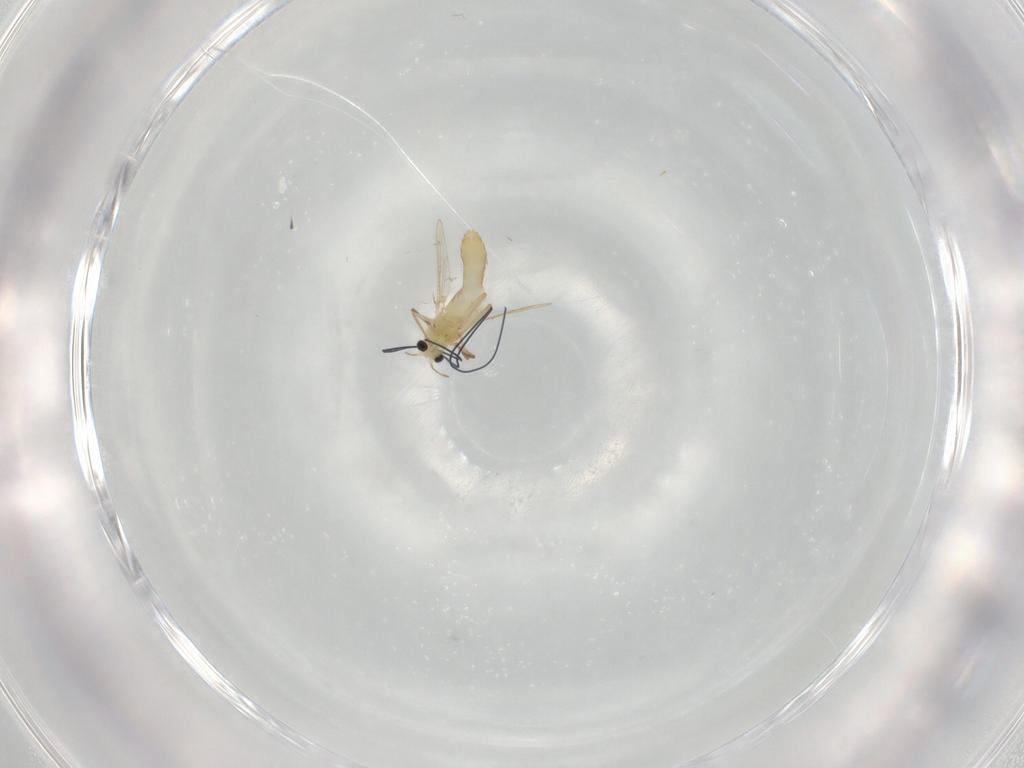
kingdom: Animalia
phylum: Arthropoda
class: Insecta
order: Diptera
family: Chironomidae
